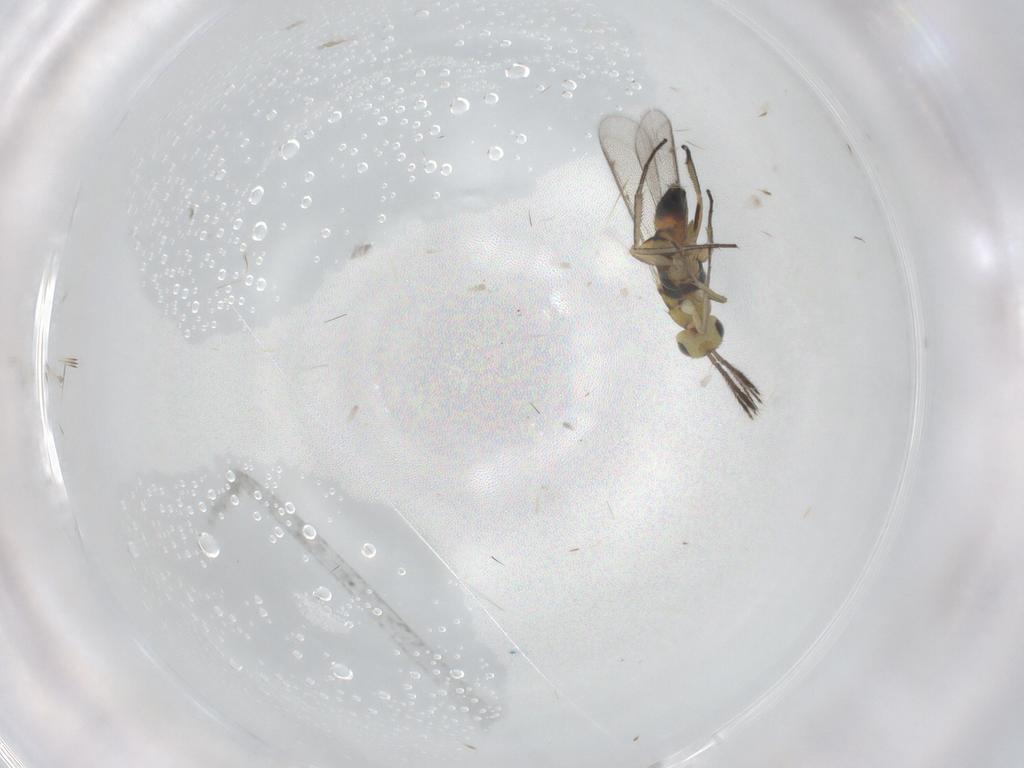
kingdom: Animalia
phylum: Arthropoda
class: Insecta
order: Hymenoptera
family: Eulophidae
